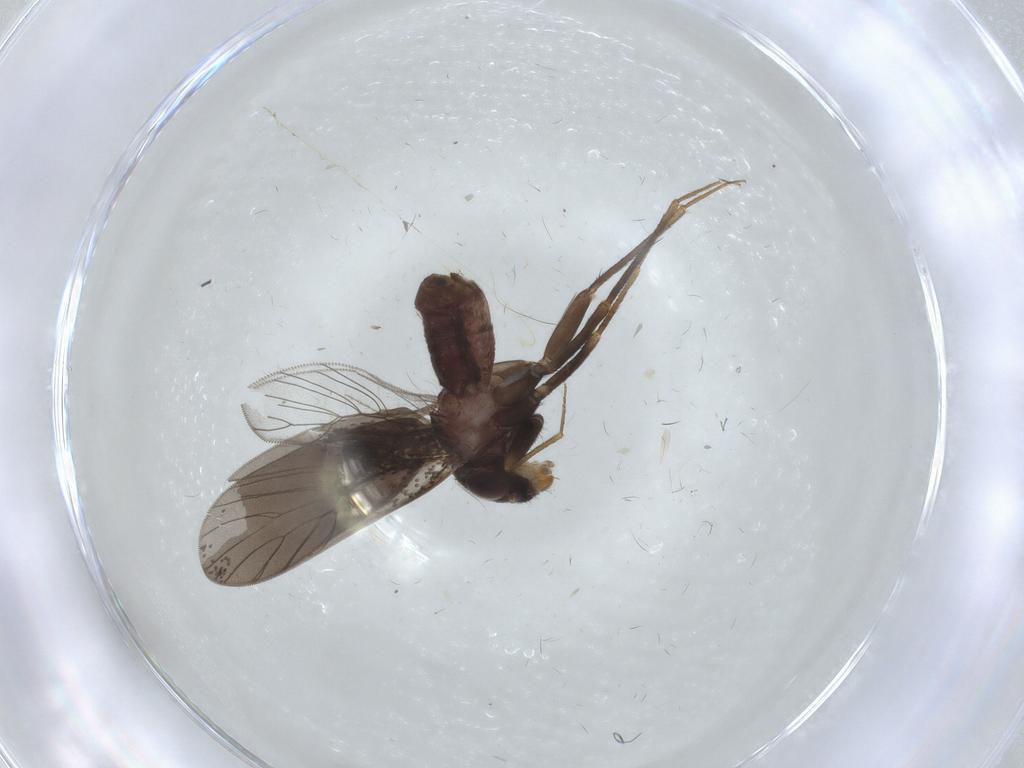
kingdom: Animalia
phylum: Arthropoda
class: Insecta
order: Psocodea
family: Lepidopsocidae
